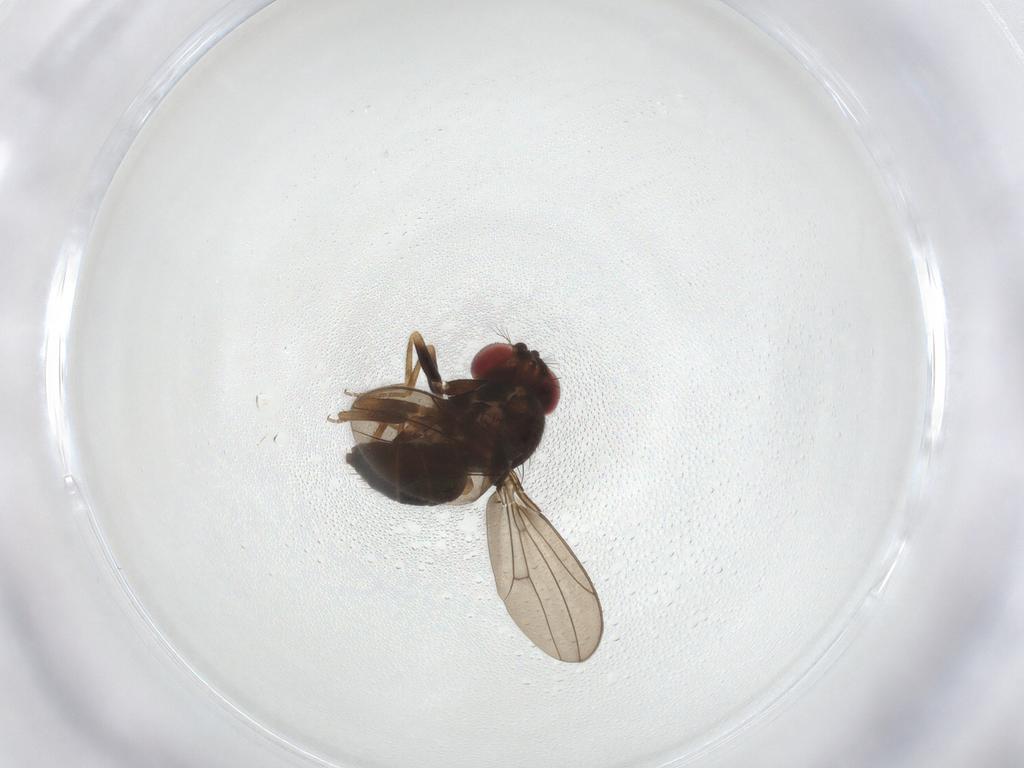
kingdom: Animalia
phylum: Arthropoda
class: Insecta
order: Diptera
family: Drosophilidae
